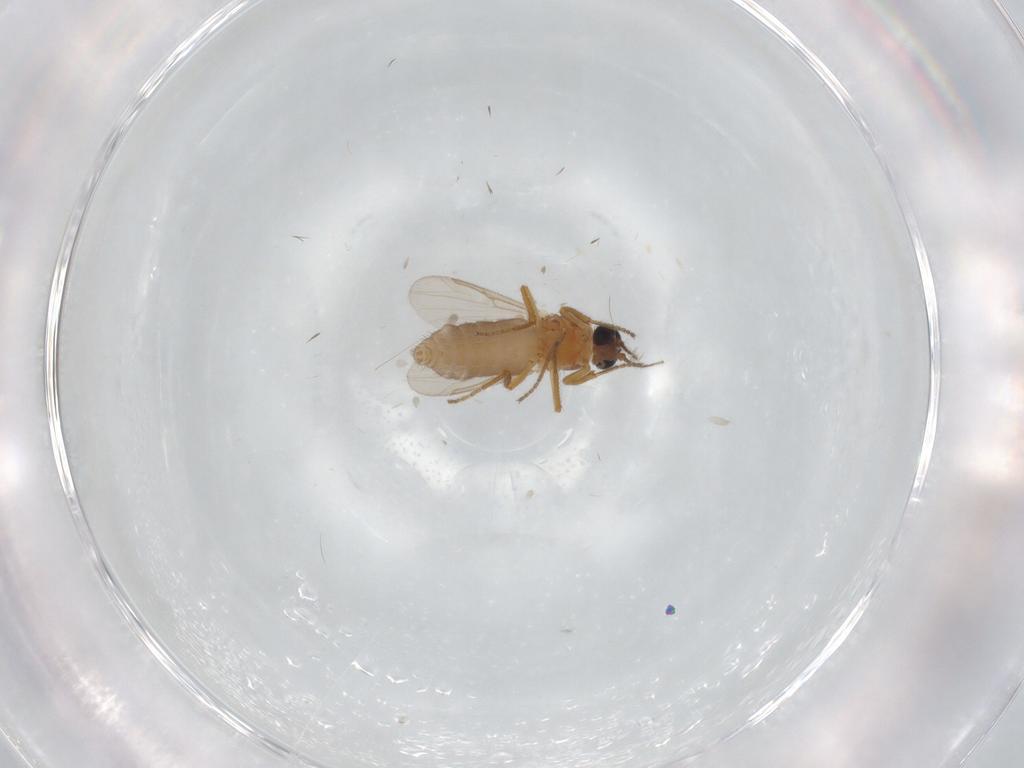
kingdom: Animalia
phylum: Arthropoda
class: Insecta
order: Diptera
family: Ceratopogonidae
